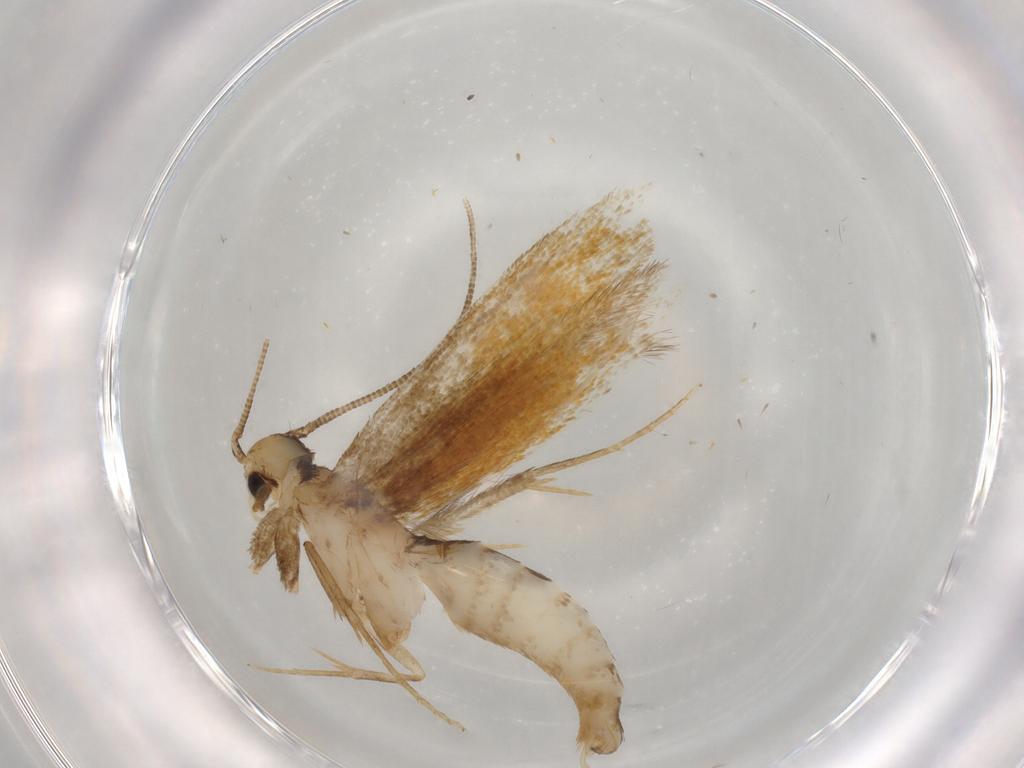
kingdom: Animalia
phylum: Arthropoda
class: Insecta
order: Lepidoptera
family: Tineidae
